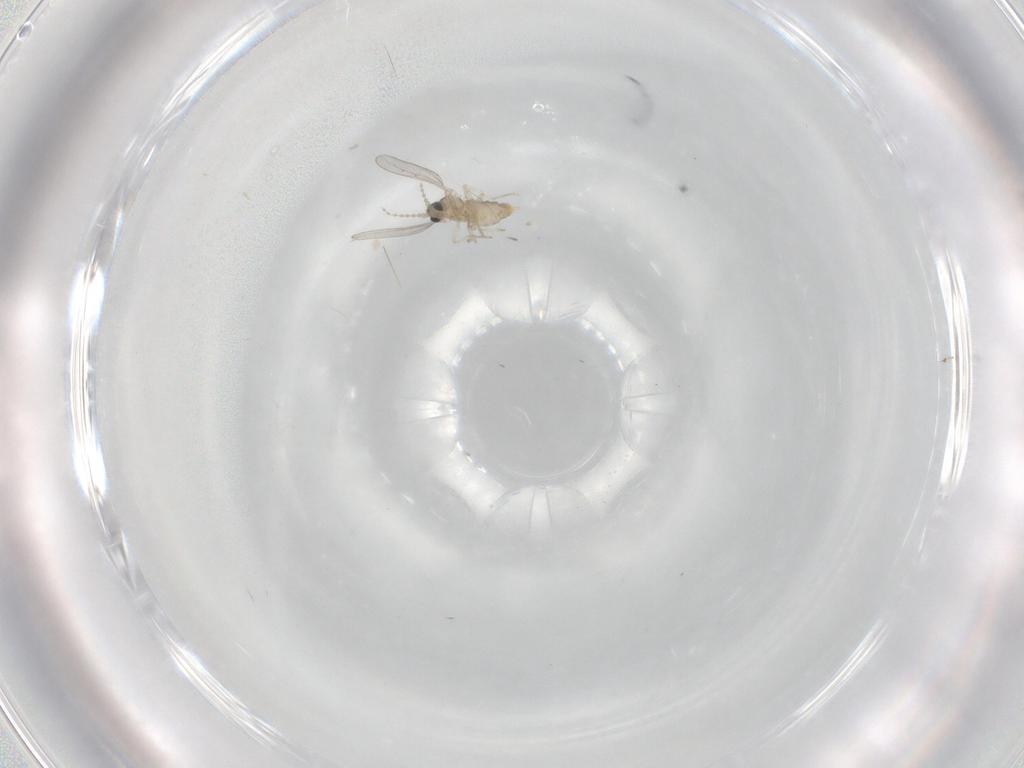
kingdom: Animalia
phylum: Arthropoda
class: Insecta
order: Diptera
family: Cecidomyiidae
